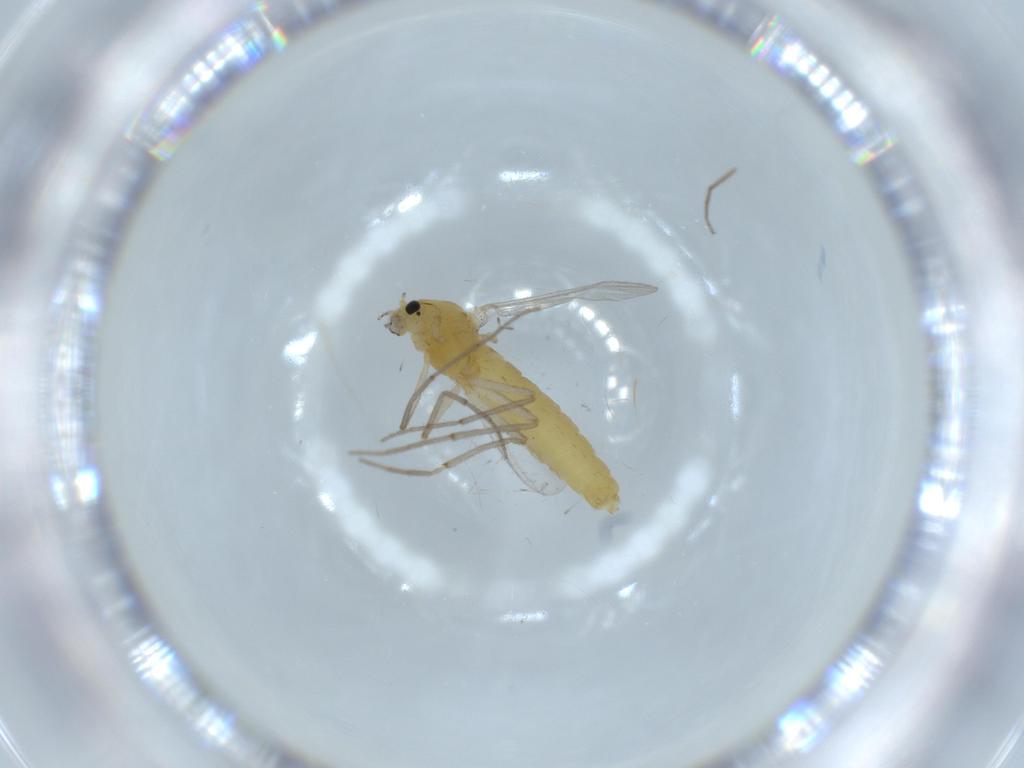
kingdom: Animalia
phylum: Arthropoda
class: Insecta
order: Diptera
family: Chironomidae
